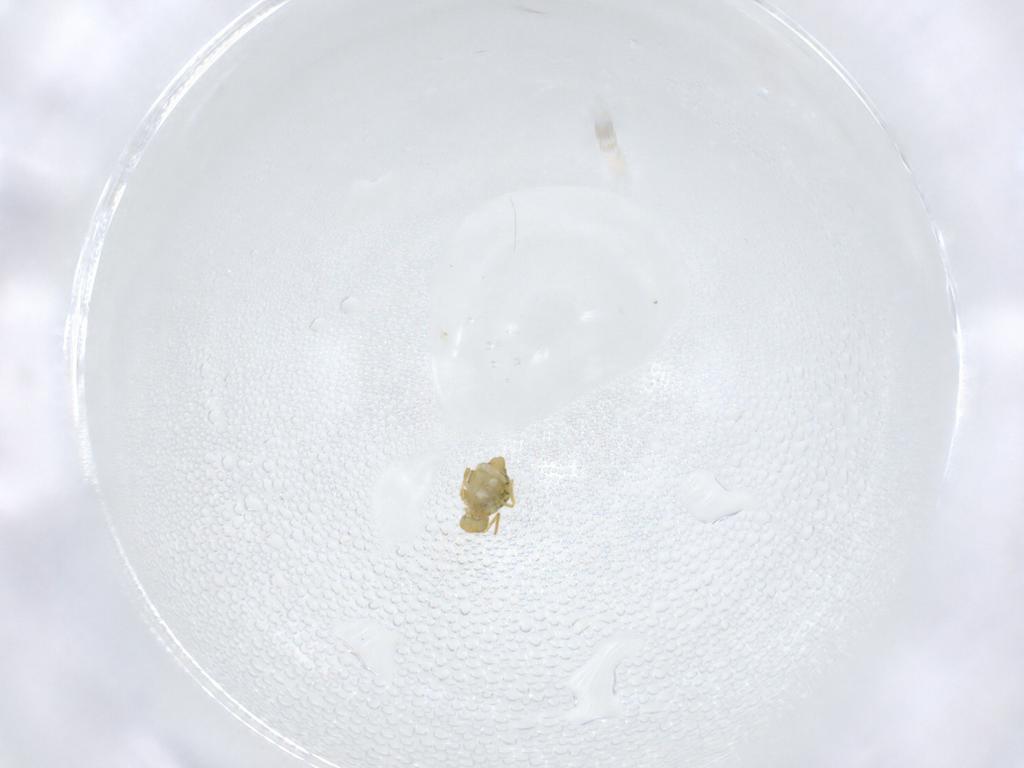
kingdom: Animalia
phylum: Arthropoda
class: Collembola
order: Symphypleona
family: Katiannidae
